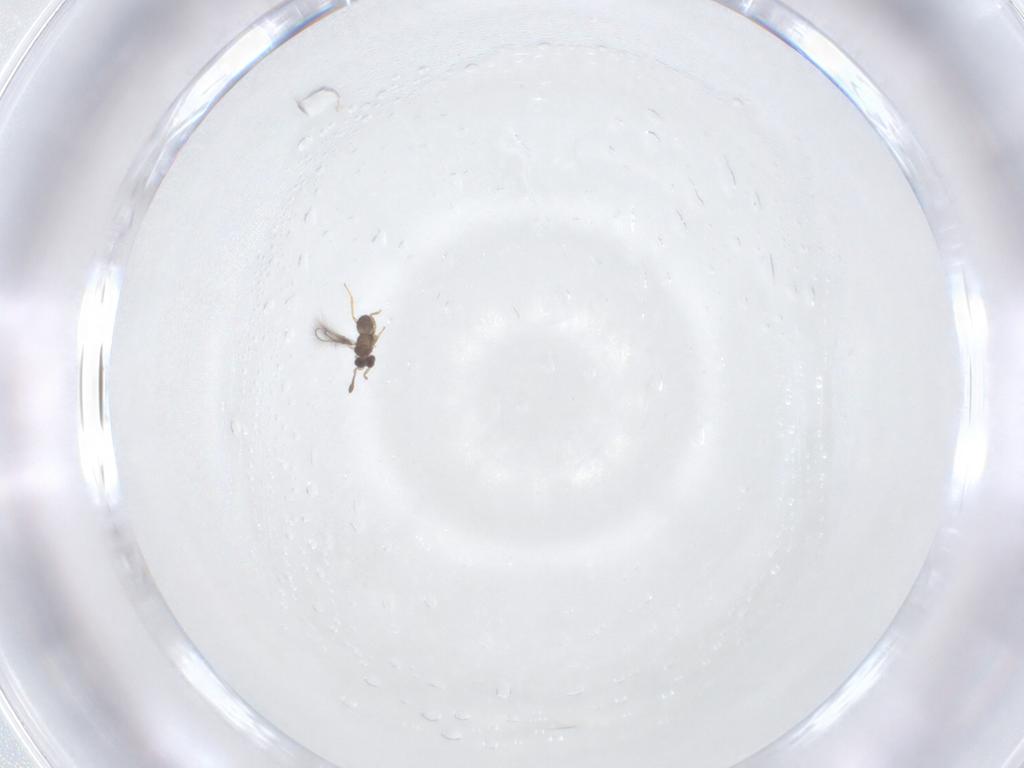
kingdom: Animalia
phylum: Arthropoda
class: Insecta
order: Hymenoptera
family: Mymaridae
